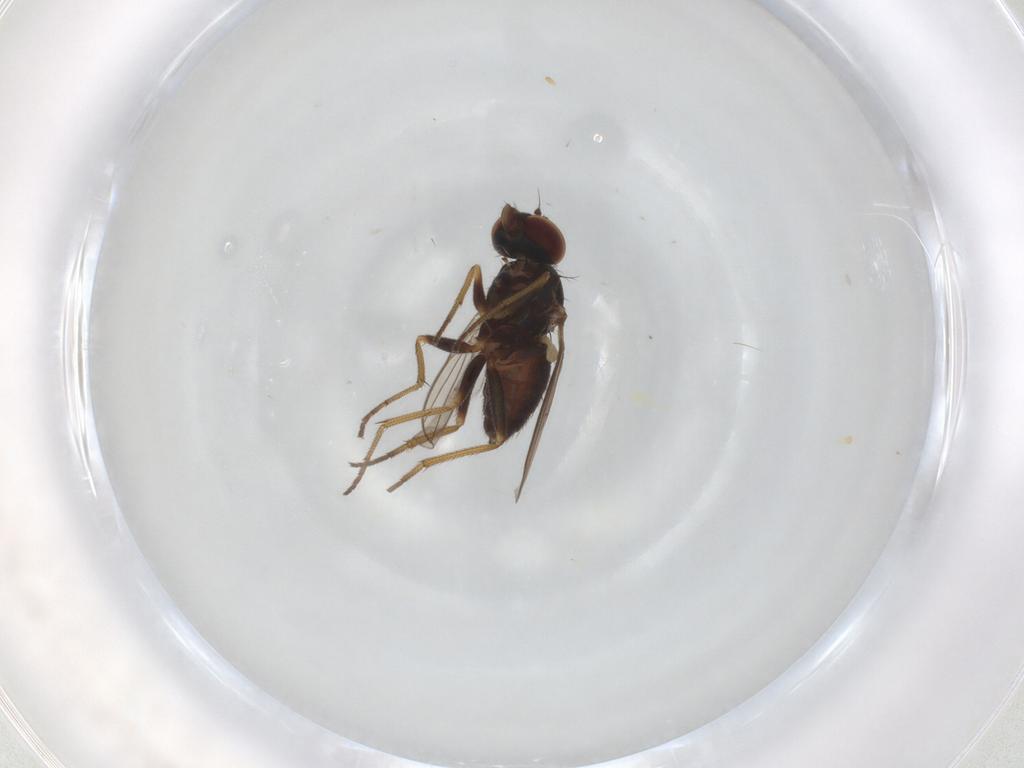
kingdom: Animalia
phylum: Arthropoda
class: Insecta
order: Diptera
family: Dolichopodidae
